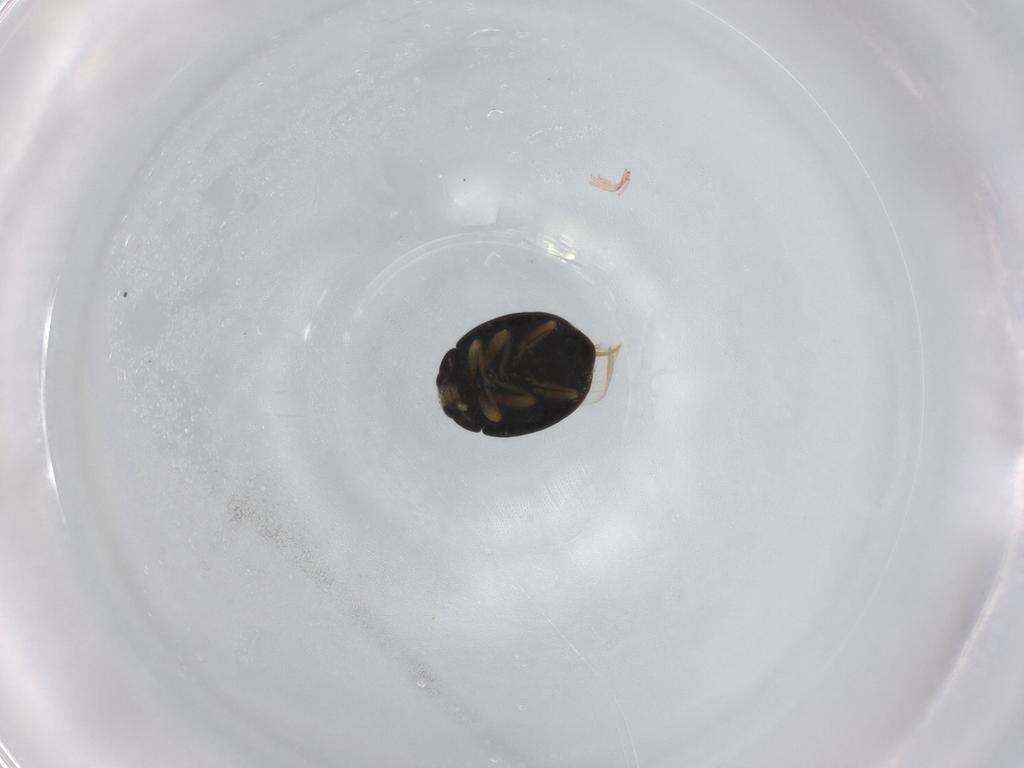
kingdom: Animalia
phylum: Arthropoda
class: Insecta
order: Coleoptera
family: Coccinellidae
